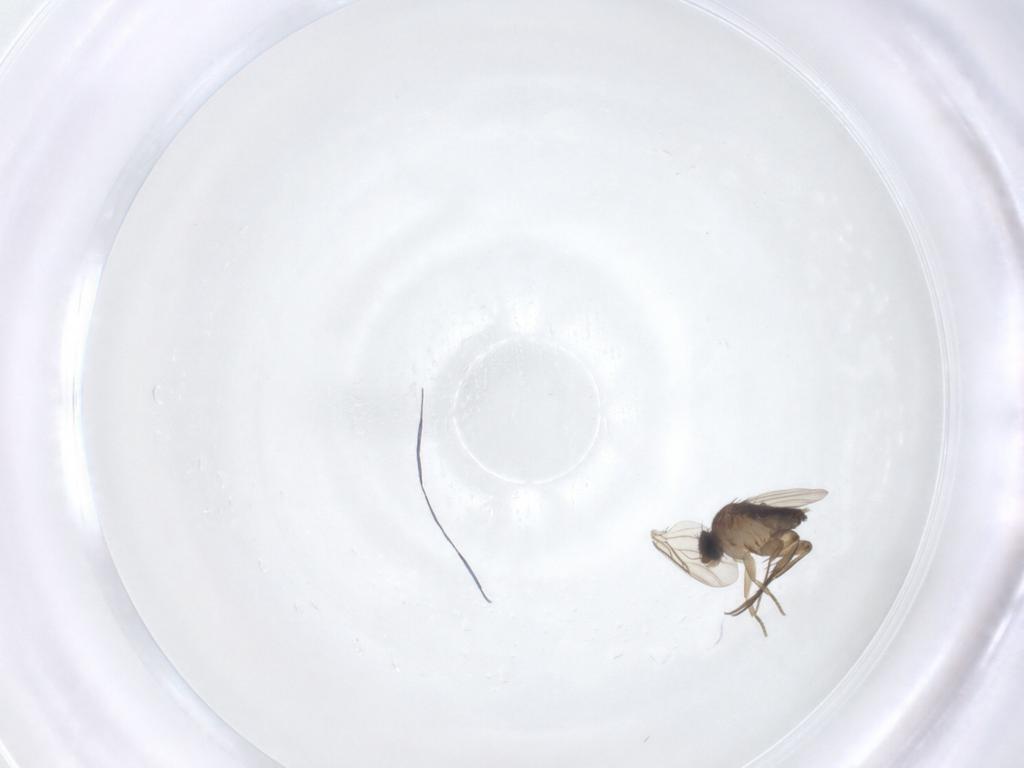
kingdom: Animalia
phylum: Arthropoda
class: Insecta
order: Diptera
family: Phoridae
